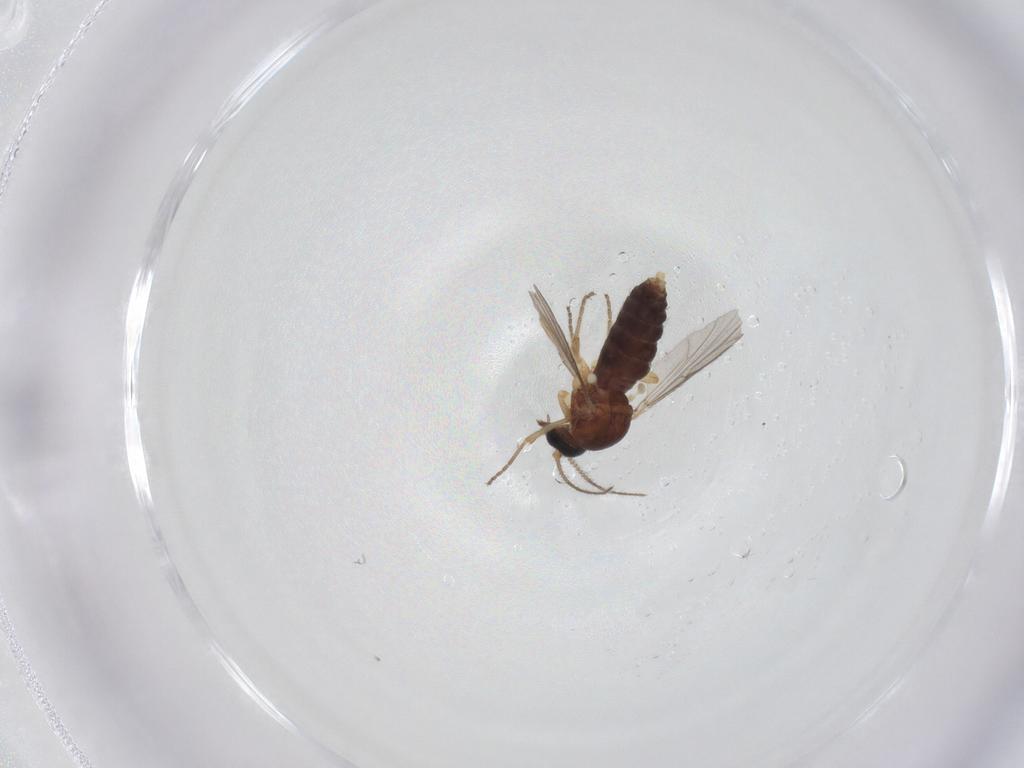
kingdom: Animalia
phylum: Arthropoda
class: Insecta
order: Diptera
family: Ceratopogonidae
